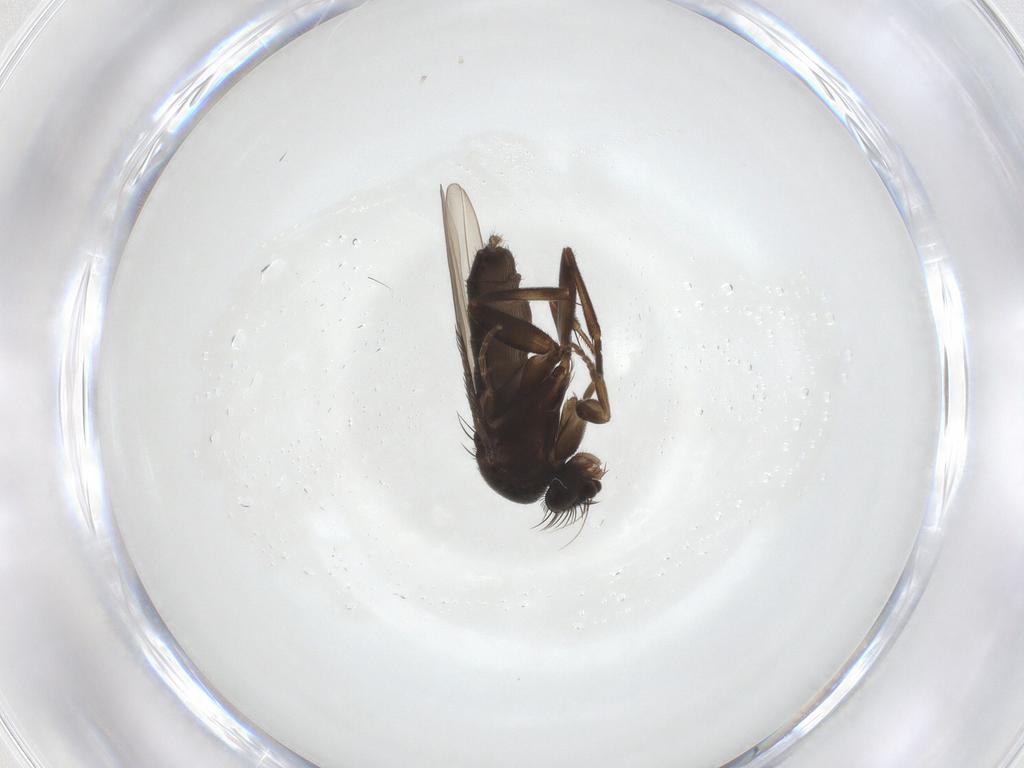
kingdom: Animalia
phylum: Arthropoda
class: Insecta
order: Diptera
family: Phoridae
